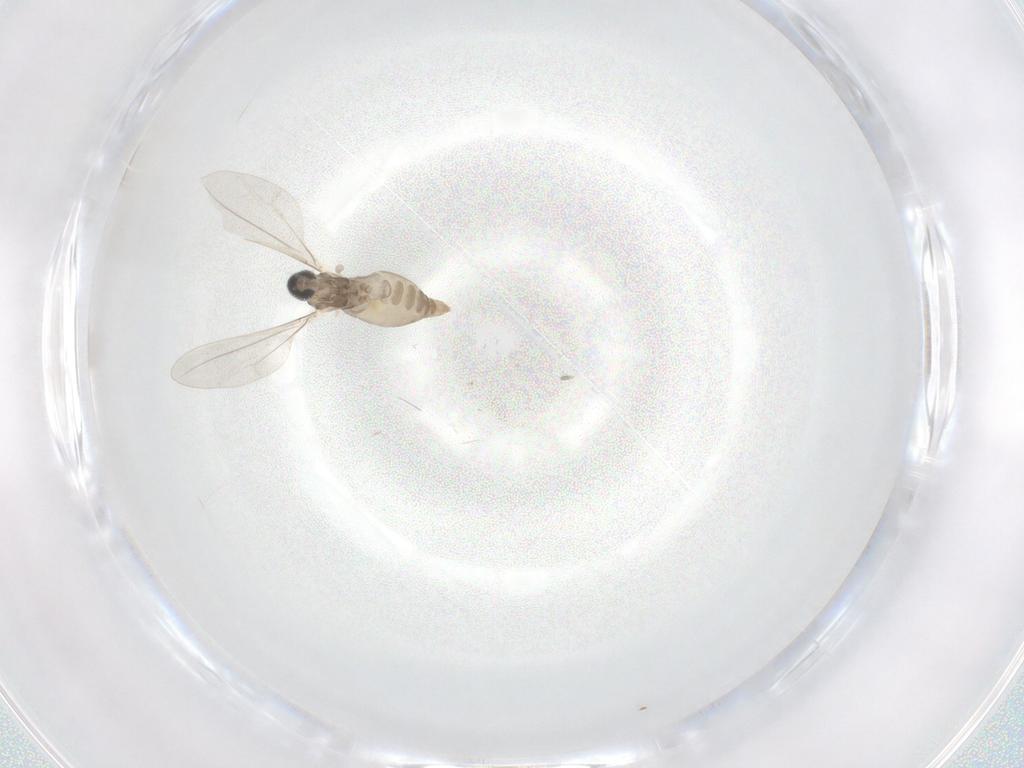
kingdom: Animalia
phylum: Arthropoda
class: Insecta
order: Diptera
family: Cecidomyiidae
